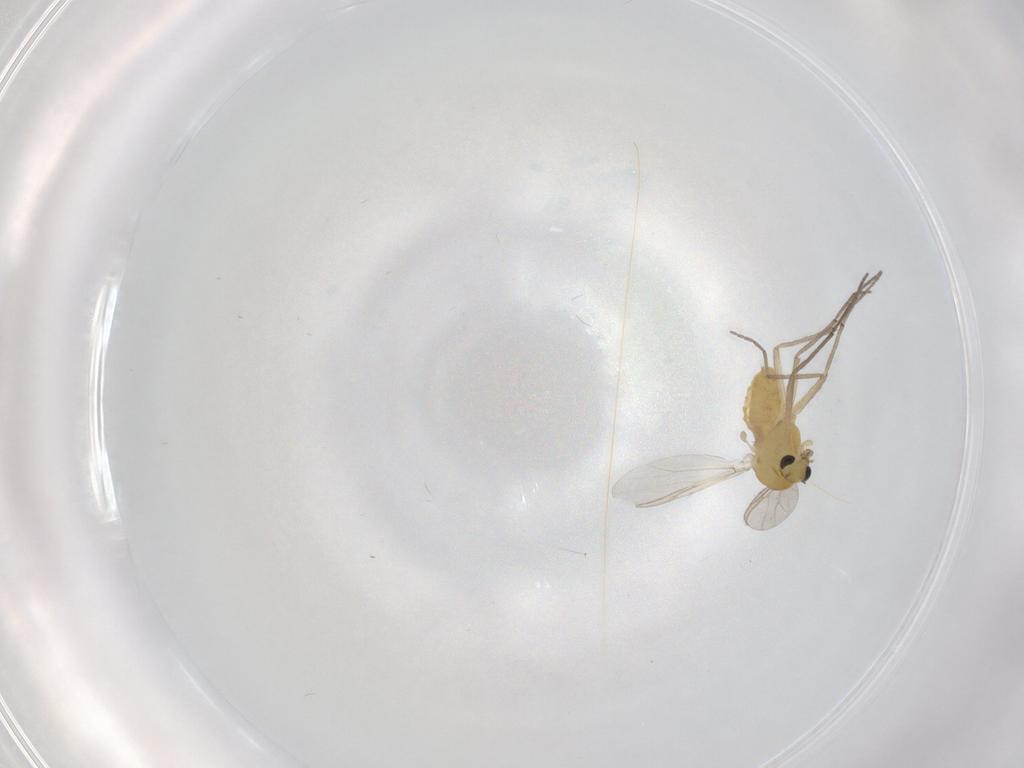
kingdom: Animalia
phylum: Arthropoda
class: Insecta
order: Diptera
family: Chironomidae
